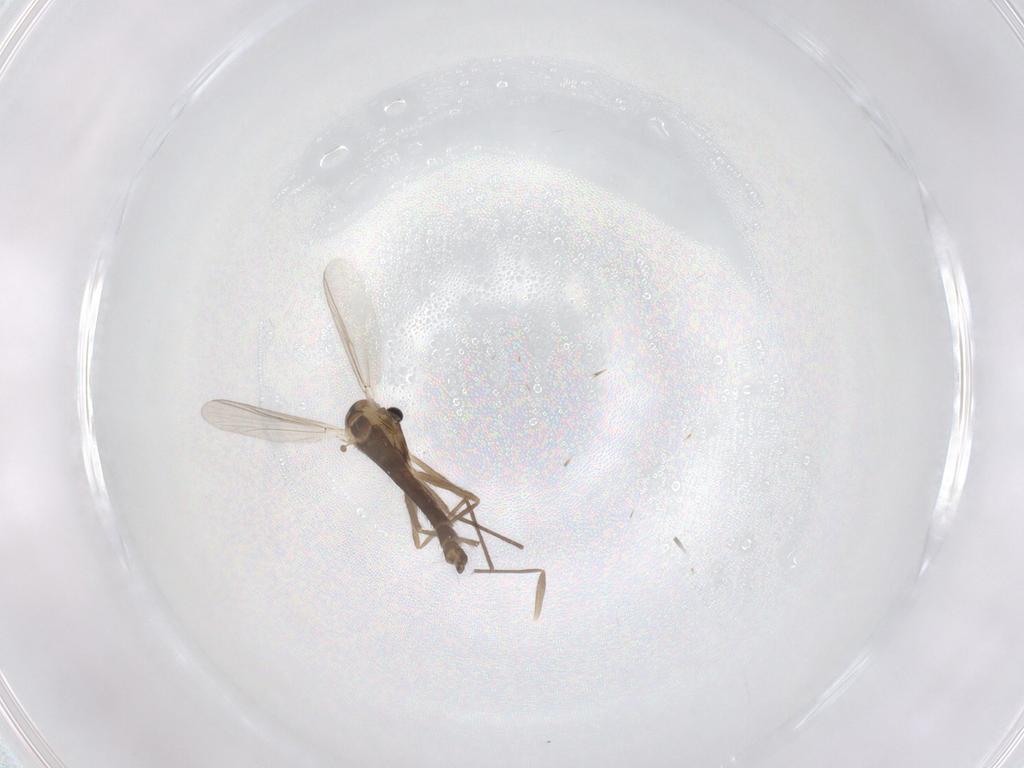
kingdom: Animalia
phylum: Arthropoda
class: Insecta
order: Diptera
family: Chironomidae
